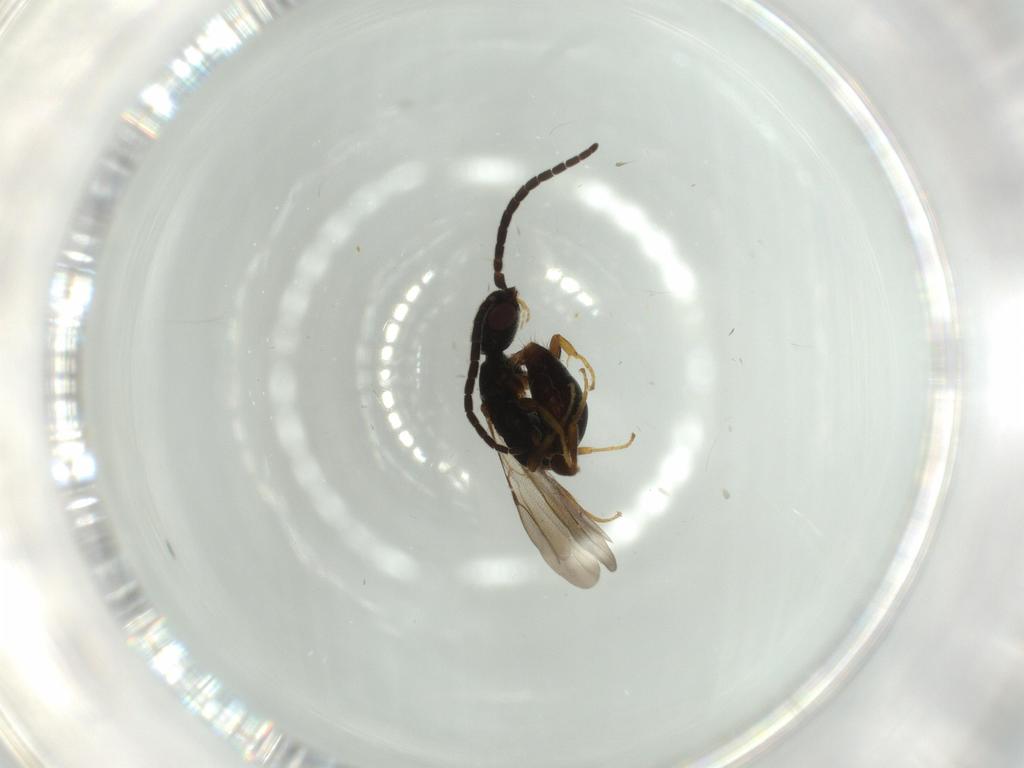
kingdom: Animalia
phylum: Arthropoda
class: Insecta
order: Hymenoptera
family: Bethylidae
